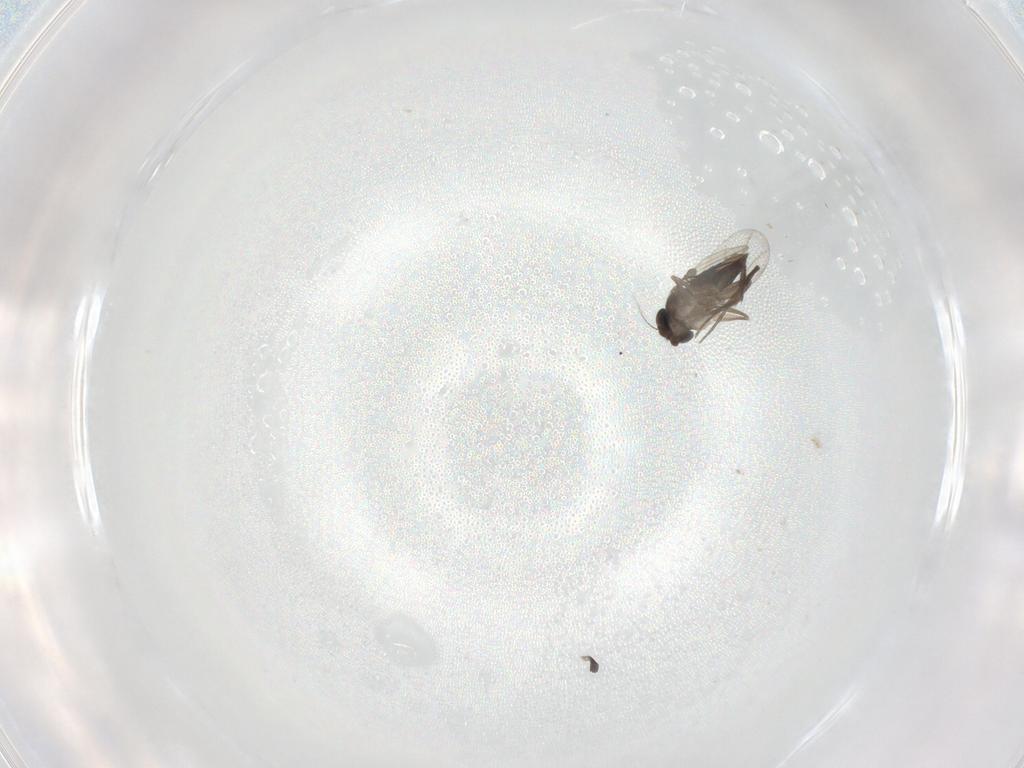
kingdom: Animalia
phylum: Arthropoda
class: Insecta
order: Diptera
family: Phoridae
